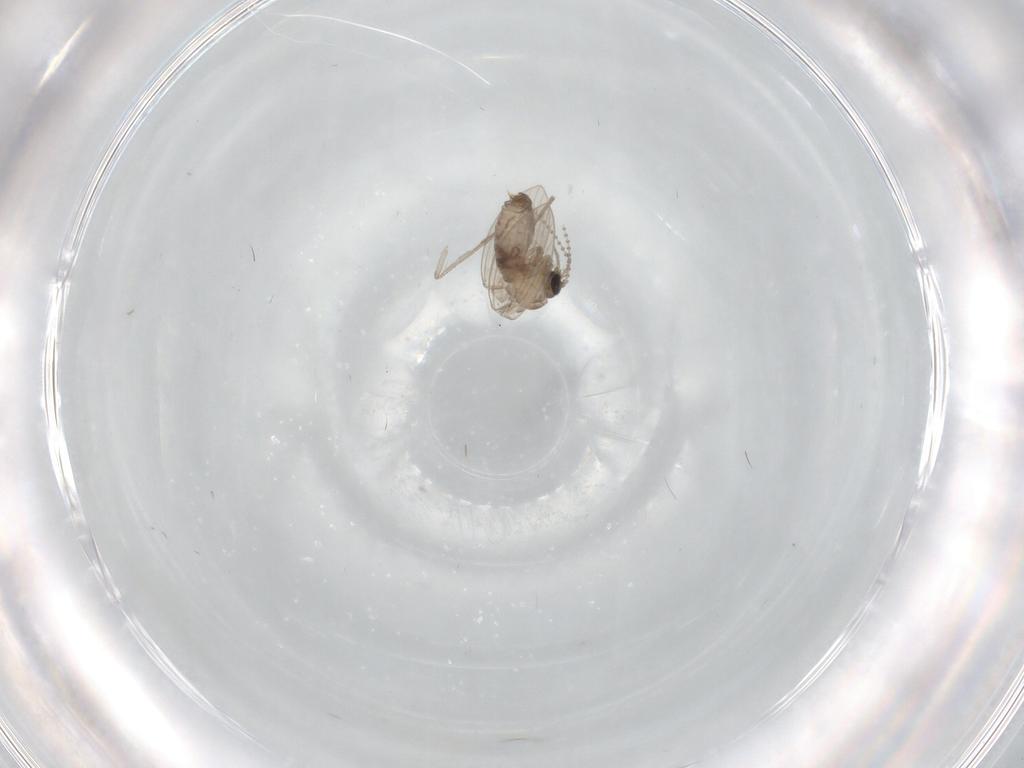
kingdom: Animalia
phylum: Arthropoda
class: Insecta
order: Diptera
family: Psychodidae
